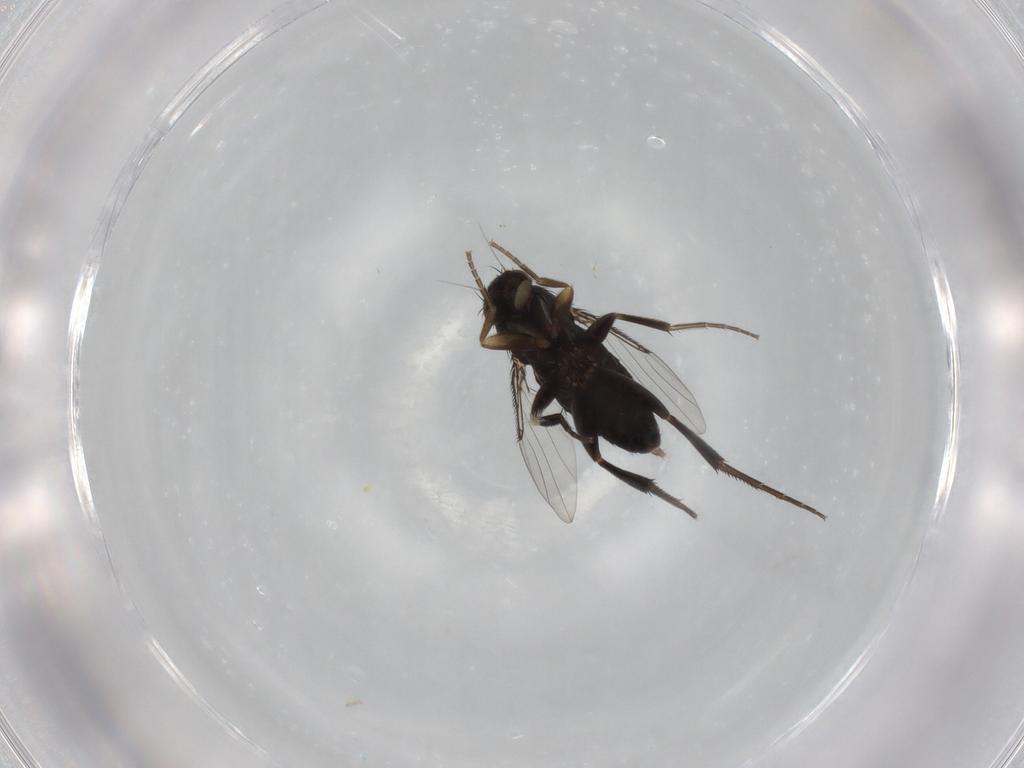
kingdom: Animalia
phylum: Arthropoda
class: Insecta
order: Diptera
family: Phoridae
